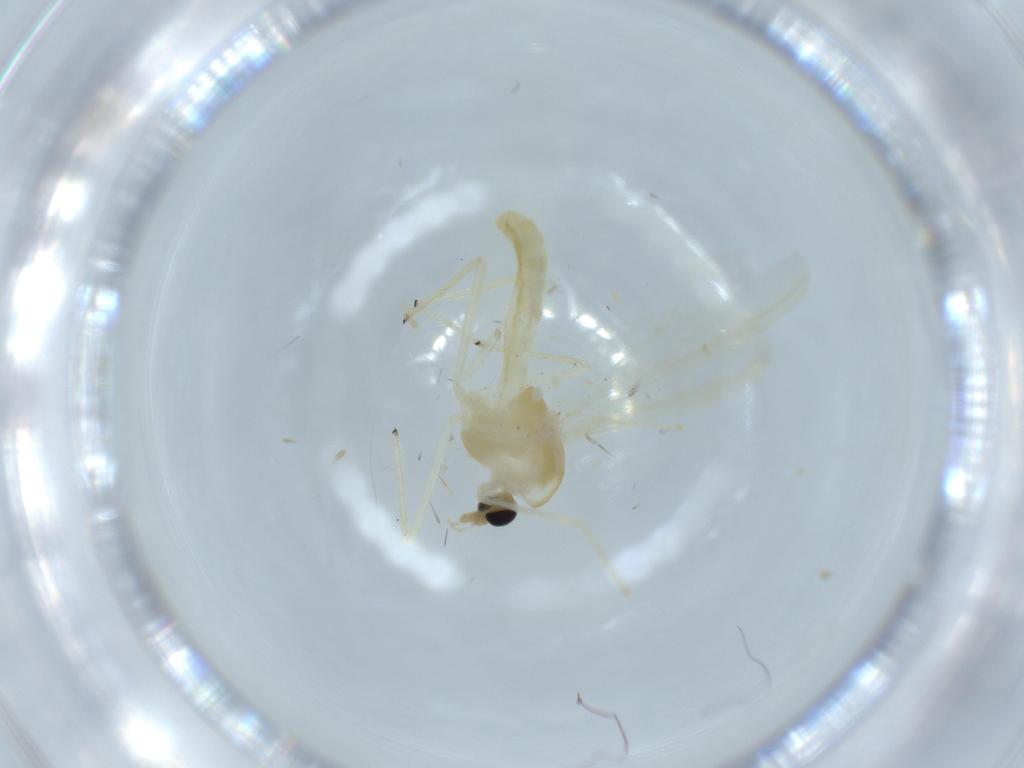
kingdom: Animalia
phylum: Arthropoda
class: Insecta
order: Diptera
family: Chironomidae
